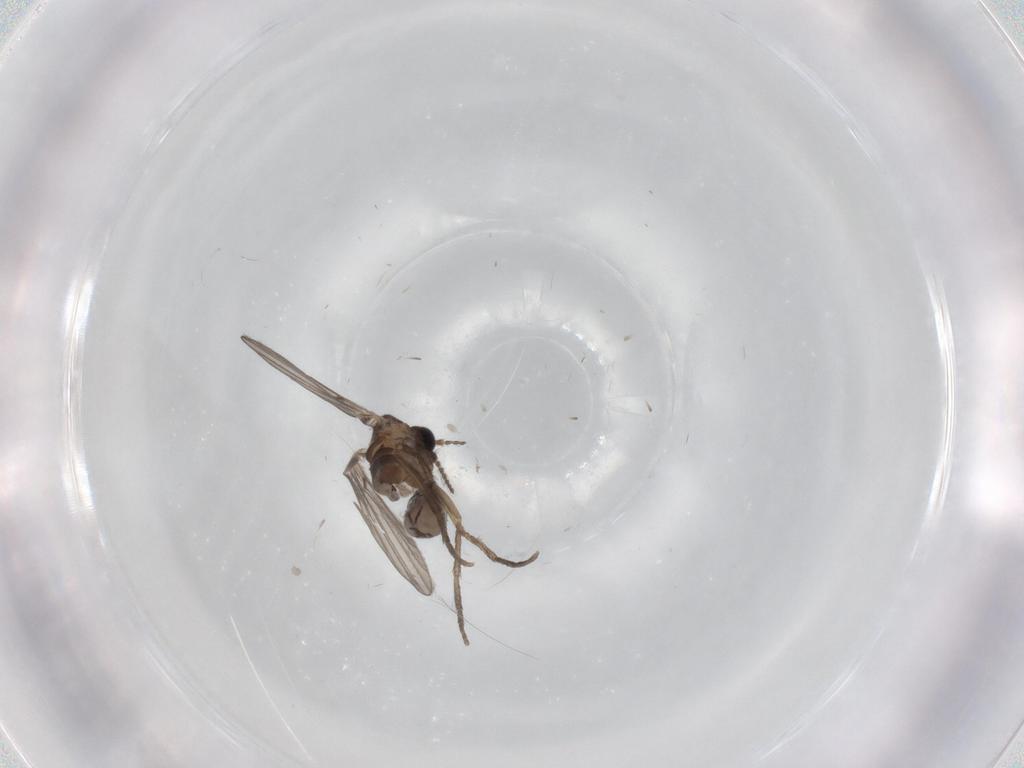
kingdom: Animalia
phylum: Arthropoda
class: Insecta
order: Diptera
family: Psychodidae
